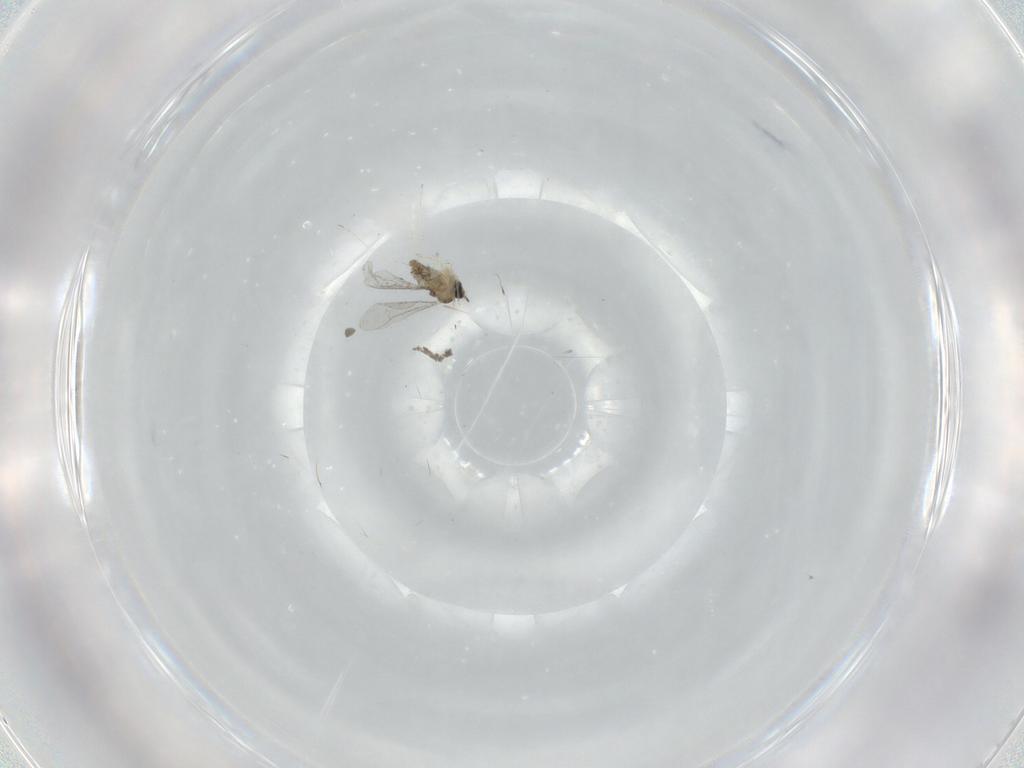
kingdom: Animalia
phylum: Arthropoda
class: Insecta
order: Diptera
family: Cecidomyiidae
